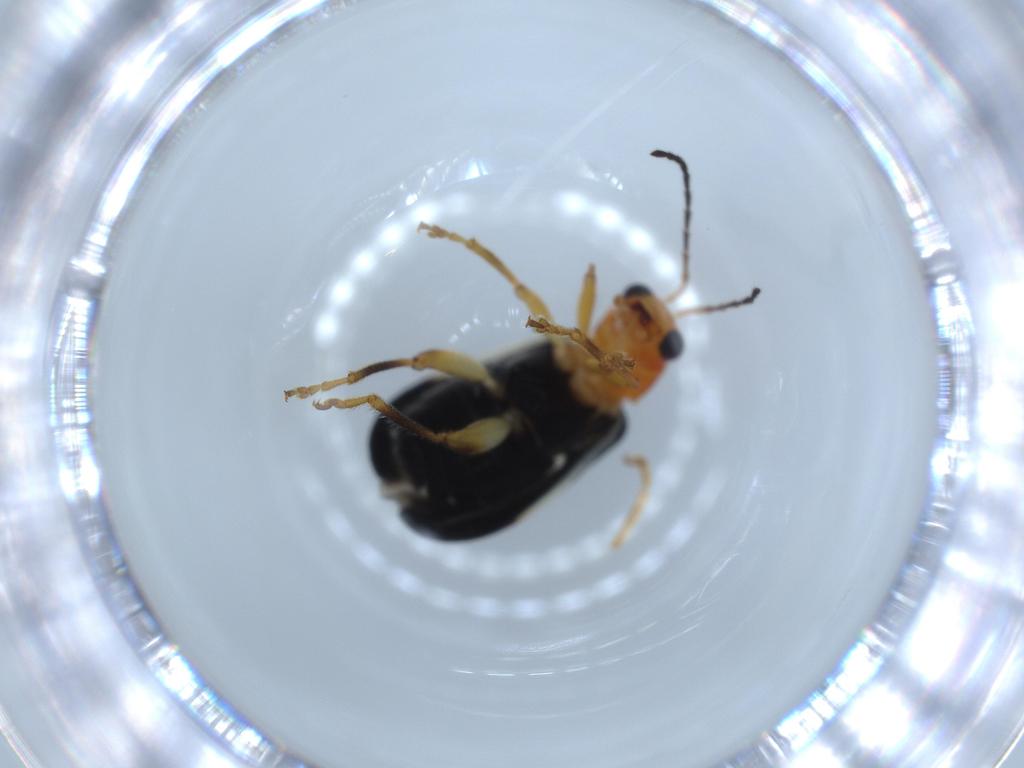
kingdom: Animalia
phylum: Arthropoda
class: Insecta
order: Coleoptera
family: Chrysomelidae
